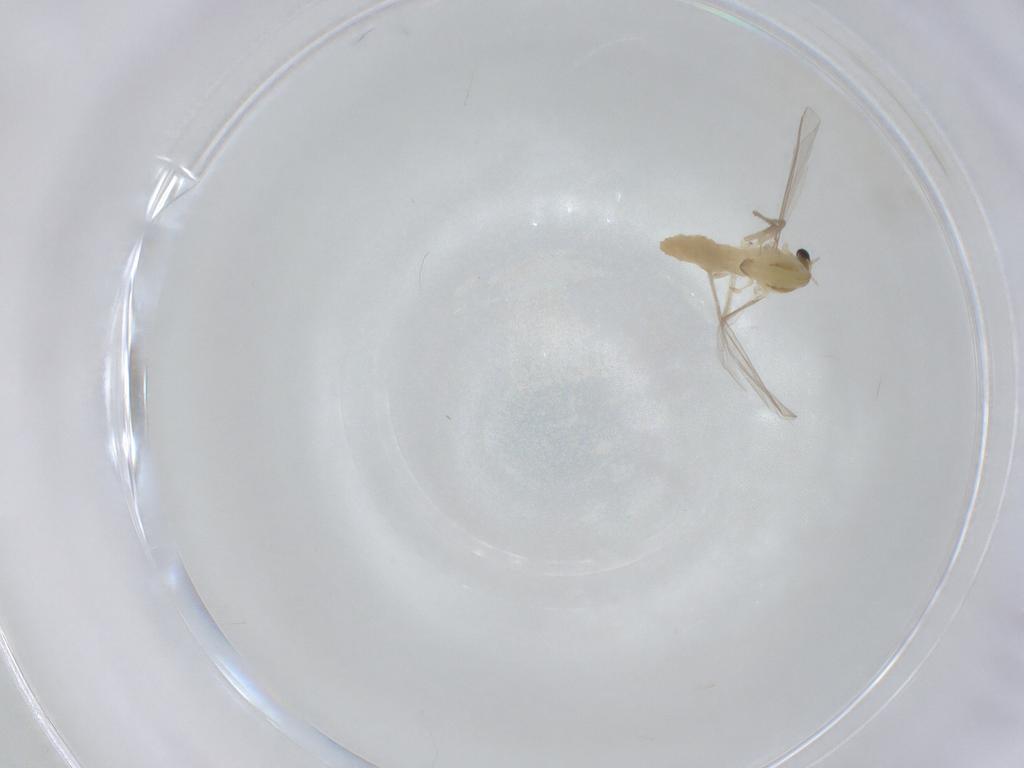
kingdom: Animalia
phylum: Arthropoda
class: Insecta
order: Diptera
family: Chironomidae
